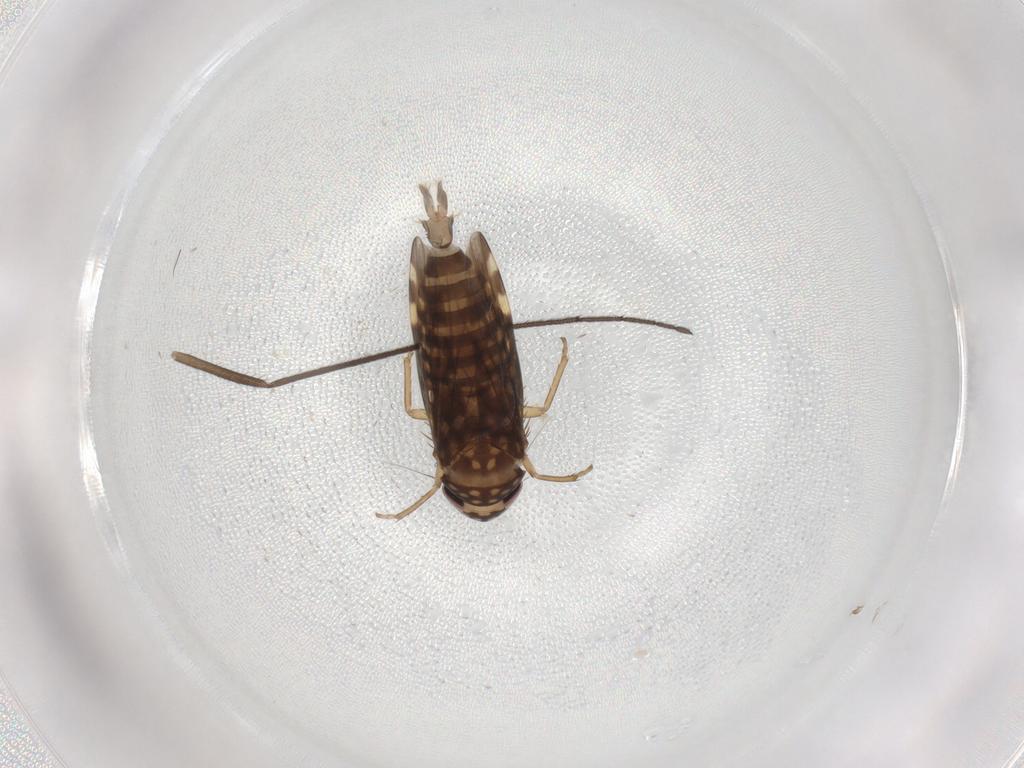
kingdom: Animalia
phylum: Arthropoda
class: Insecta
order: Hemiptera
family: Cicadellidae
